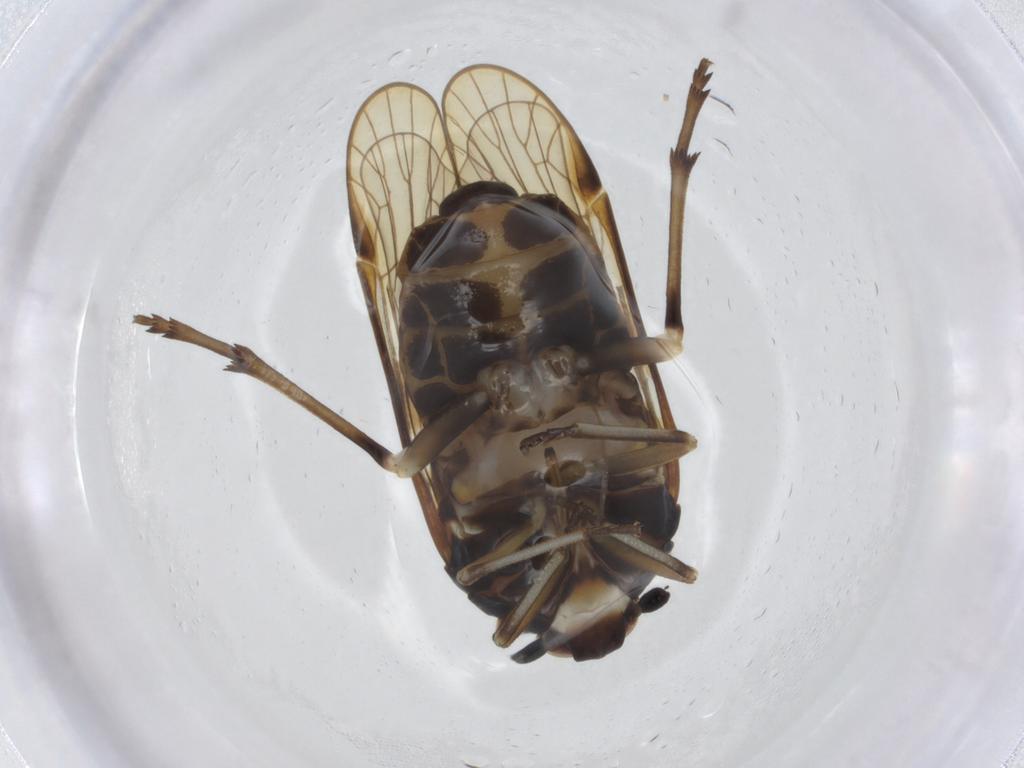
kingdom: Animalia
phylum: Arthropoda
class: Insecta
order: Hemiptera
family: Kinnaridae
